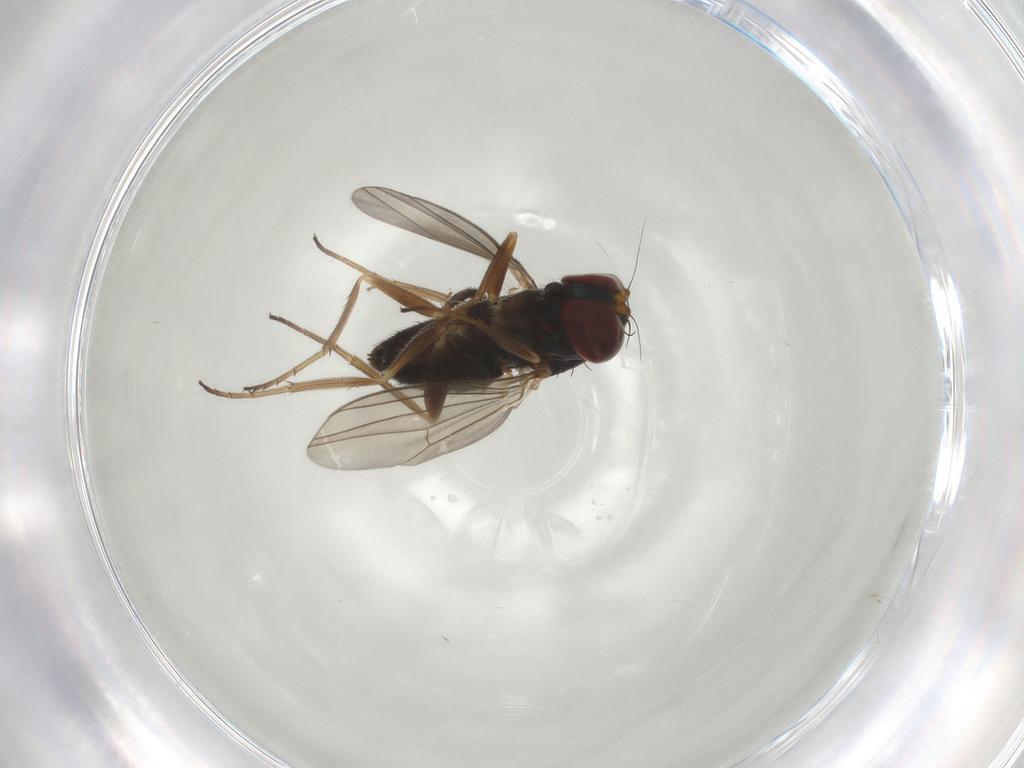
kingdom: Animalia
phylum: Arthropoda
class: Insecta
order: Diptera
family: Dolichopodidae
